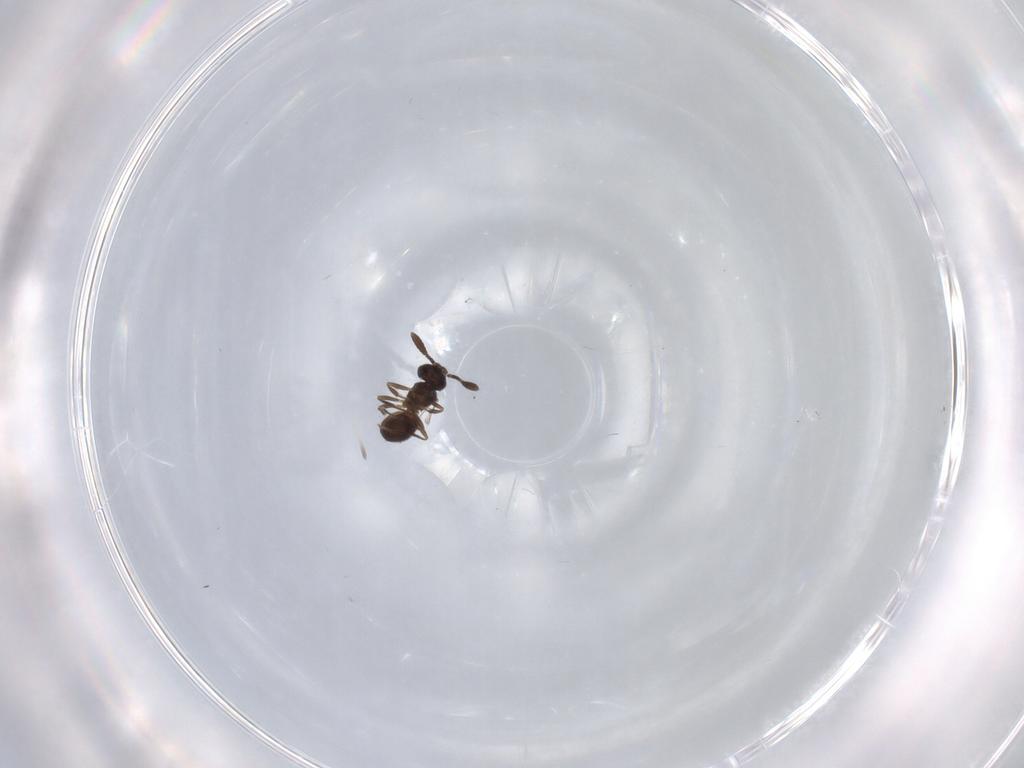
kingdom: Animalia
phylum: Arthropoda
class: Insecta
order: Hymenoptera
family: Scelionidae
